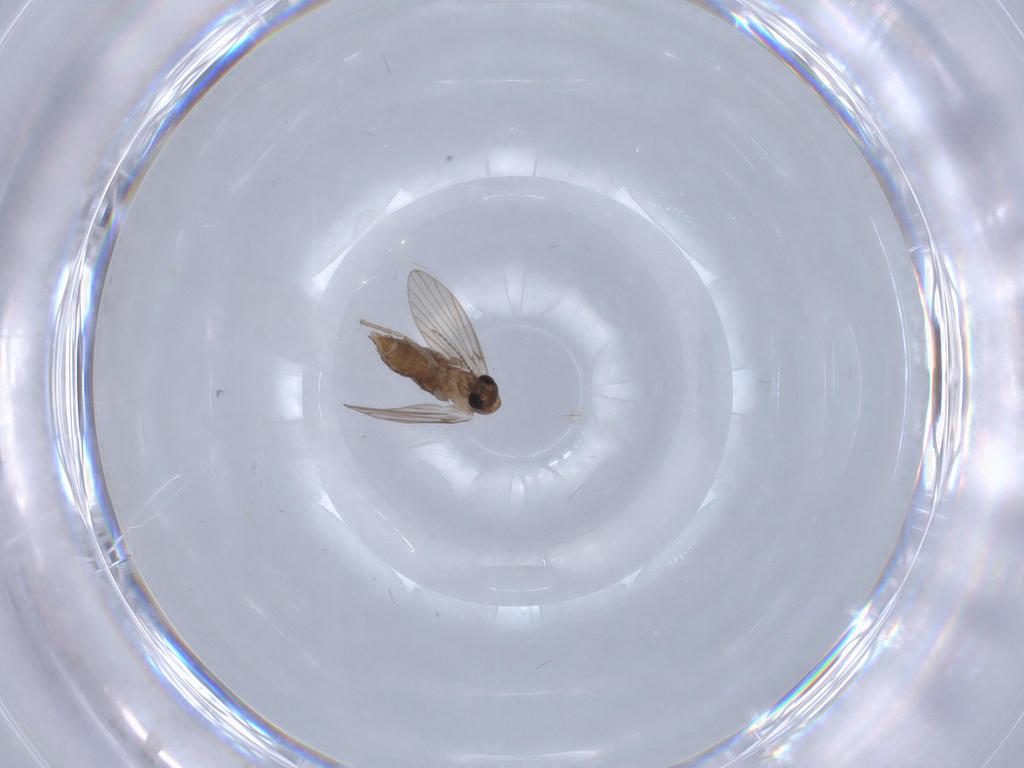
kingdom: Animalia
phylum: Arthropoda
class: Insecta
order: Diptera
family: Psychodidae
